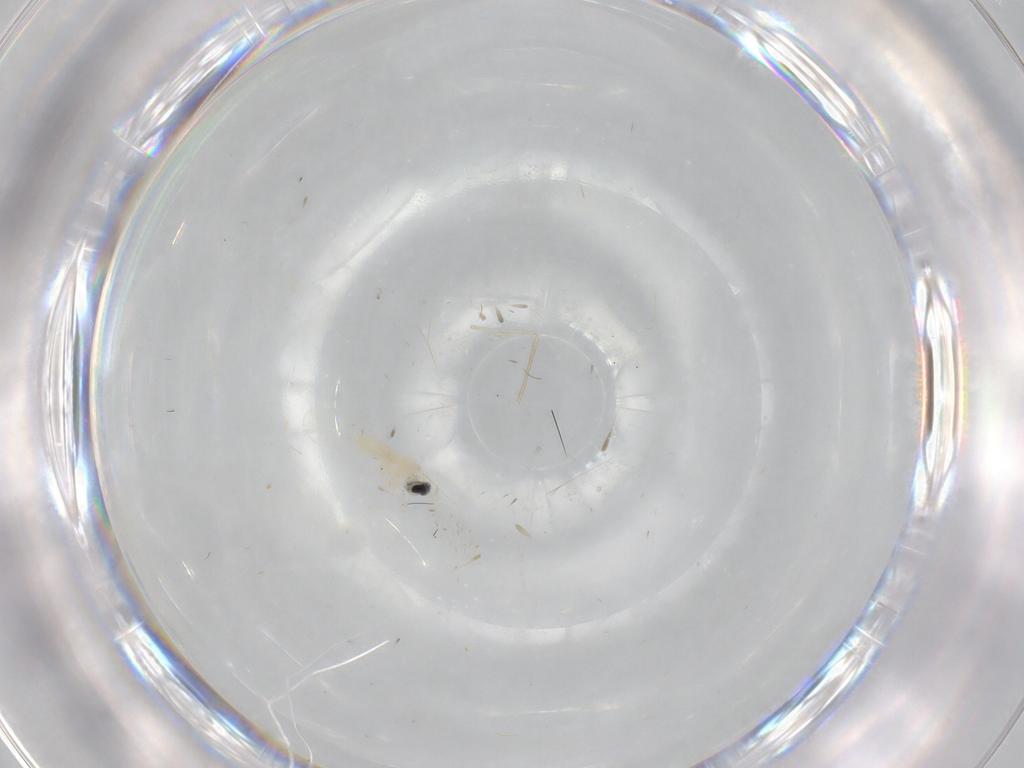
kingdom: Animalia
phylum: Arthropoda
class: Insecta
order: Diptera
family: Cecidomyiidae
